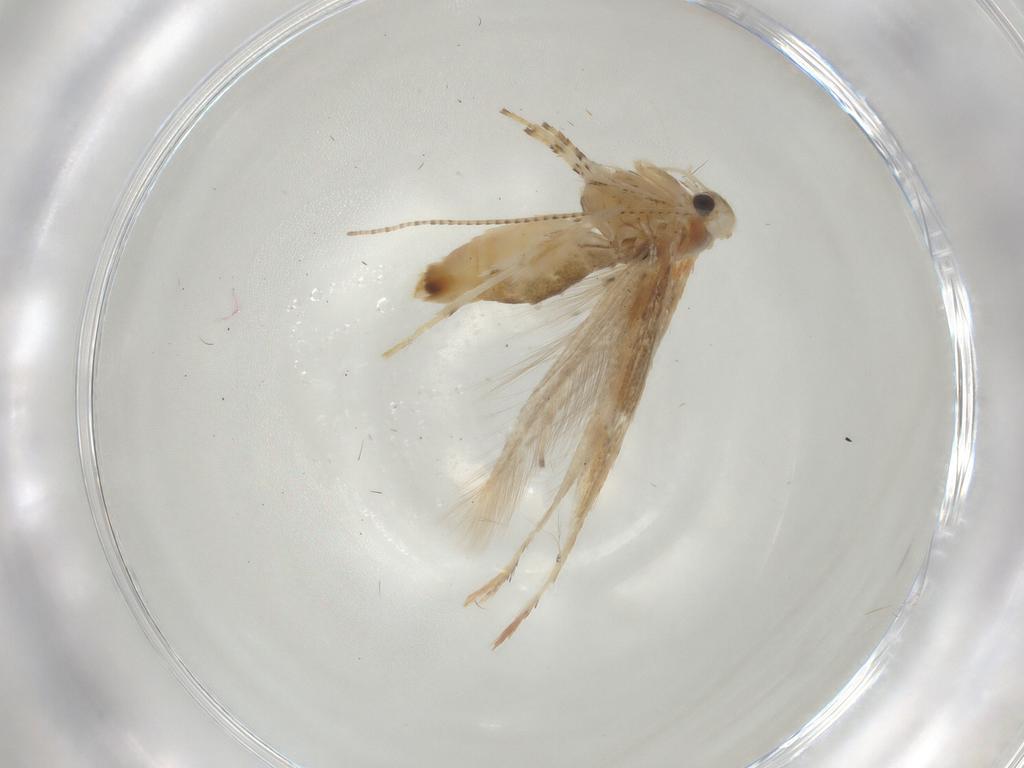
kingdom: Animalia
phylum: Arthropoda
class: Insecta
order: Lepidoptera
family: Gracillariidae
